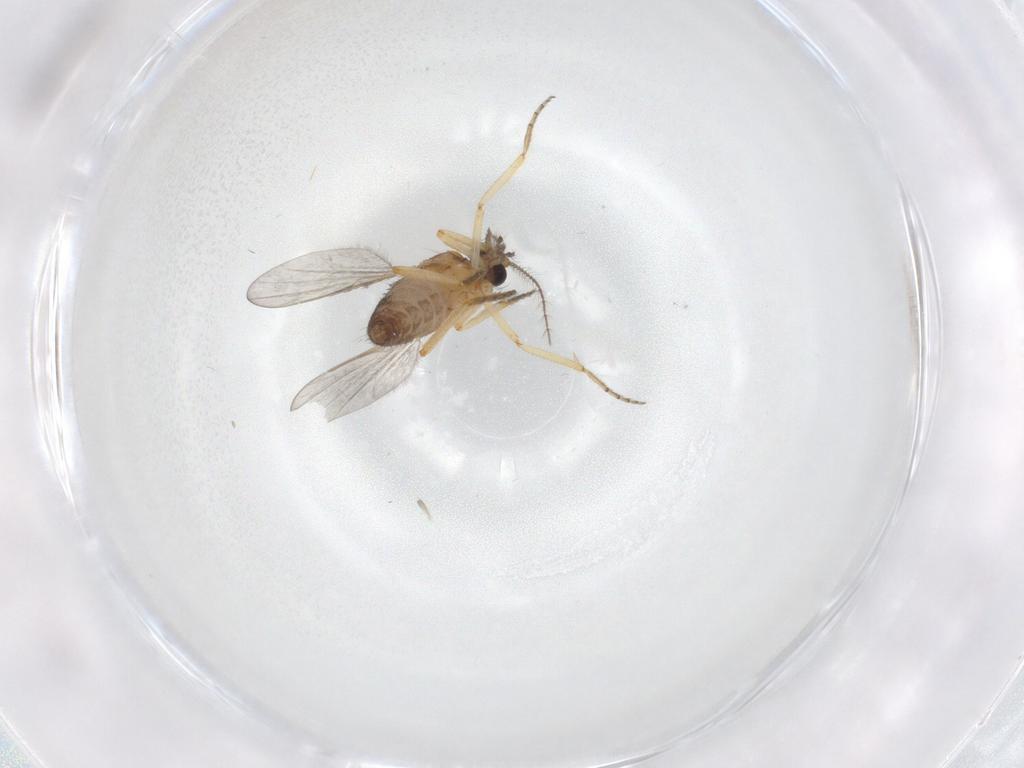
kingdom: Animalia
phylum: Arthropoda
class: Insecta
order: Diptera
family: Ceratopogonidae
